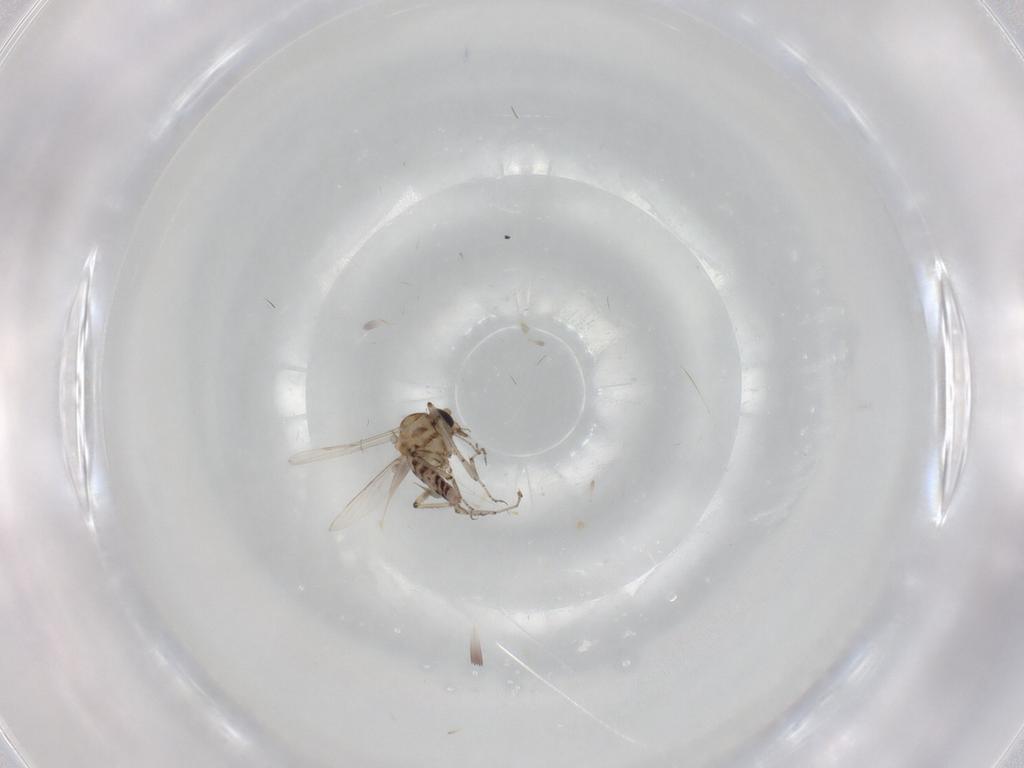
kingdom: Animalia
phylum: Arthropoda
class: Insecta
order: Diptera
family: Ceratopogonidae
